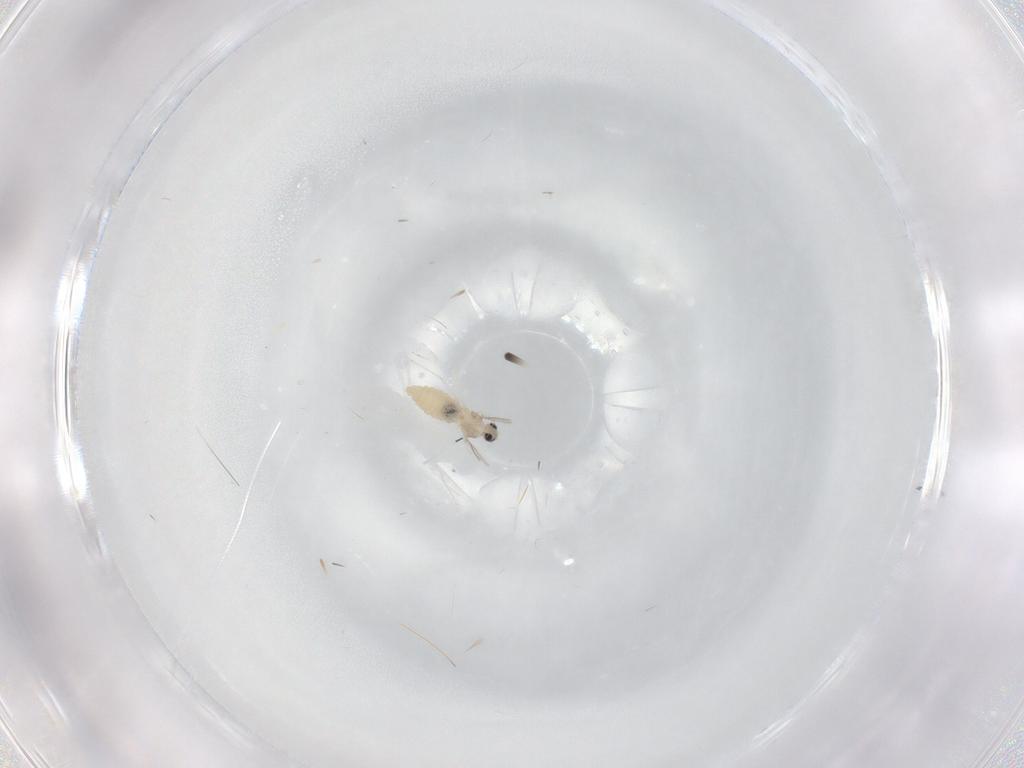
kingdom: Animalia
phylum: Arthropoda
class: Insecta
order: Diptera
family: Cecidomyiidae
